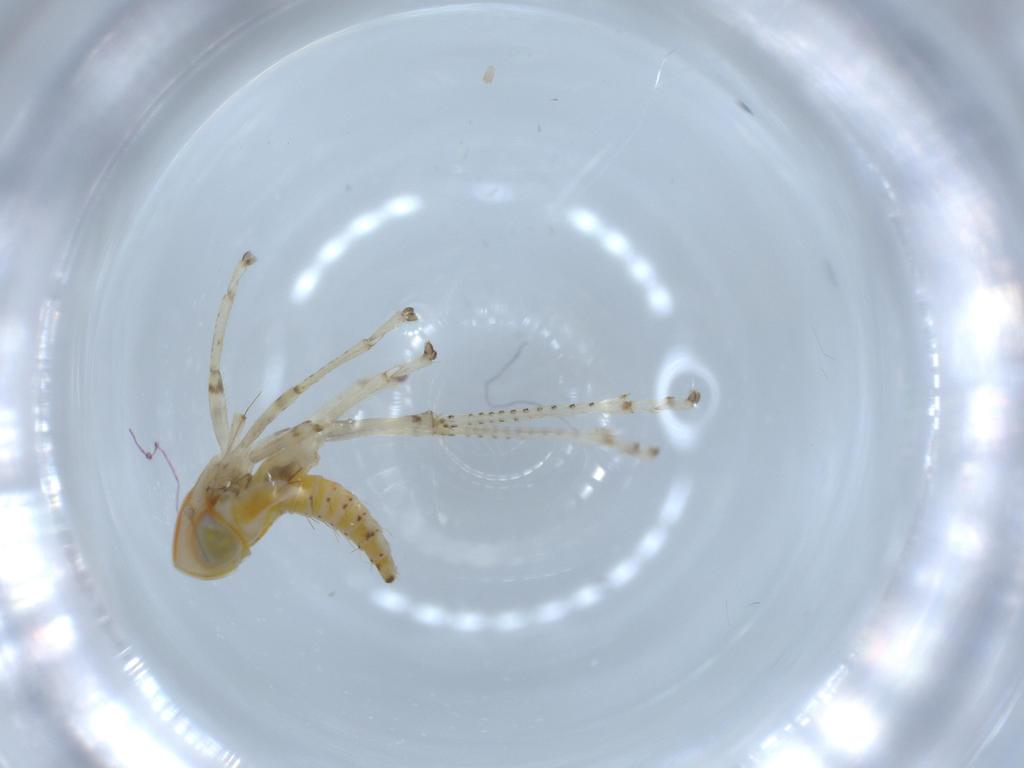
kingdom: Animalia
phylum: Arthropoda
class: Insecta
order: Hemiptera
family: Cicadellidae
